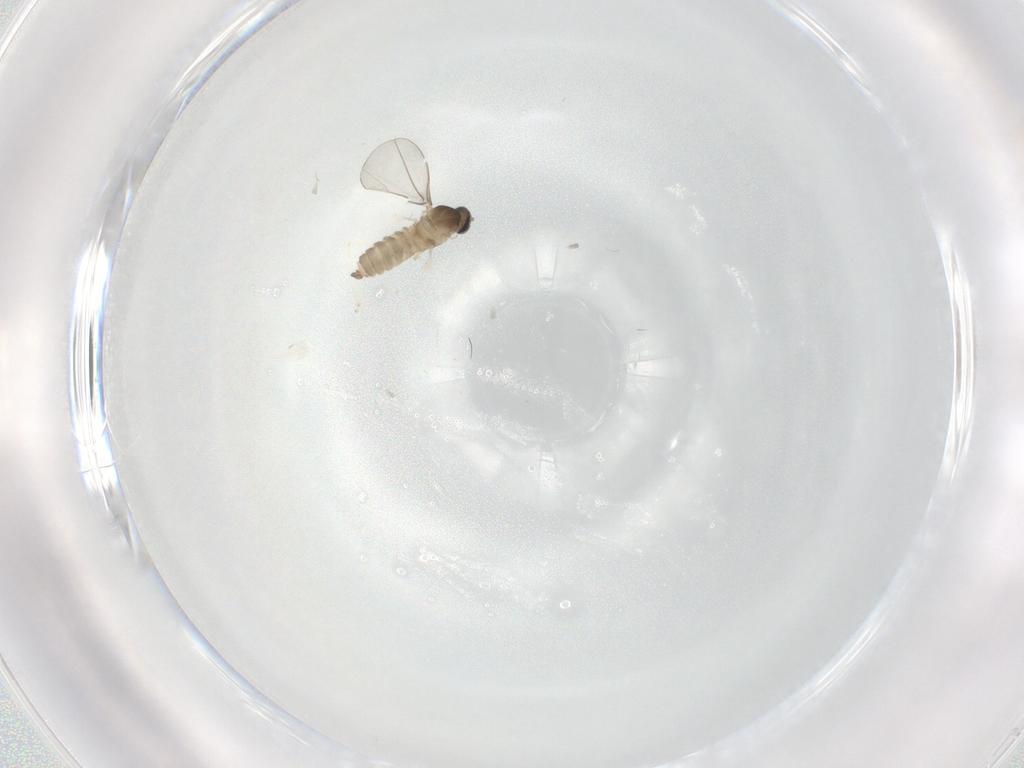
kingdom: Animalia
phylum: Arthropoda
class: Insecta
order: Diptera
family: Cecidomyiidae
